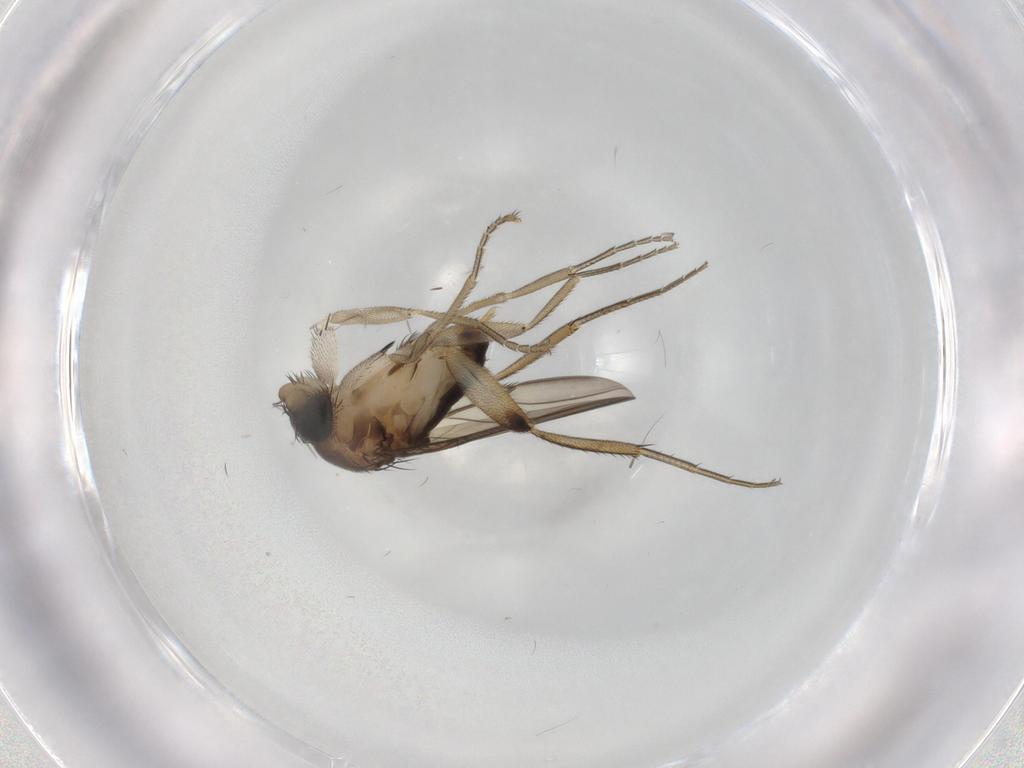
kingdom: Animalia
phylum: Arthropoda
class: Insecta
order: Diptera
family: Phoridae
